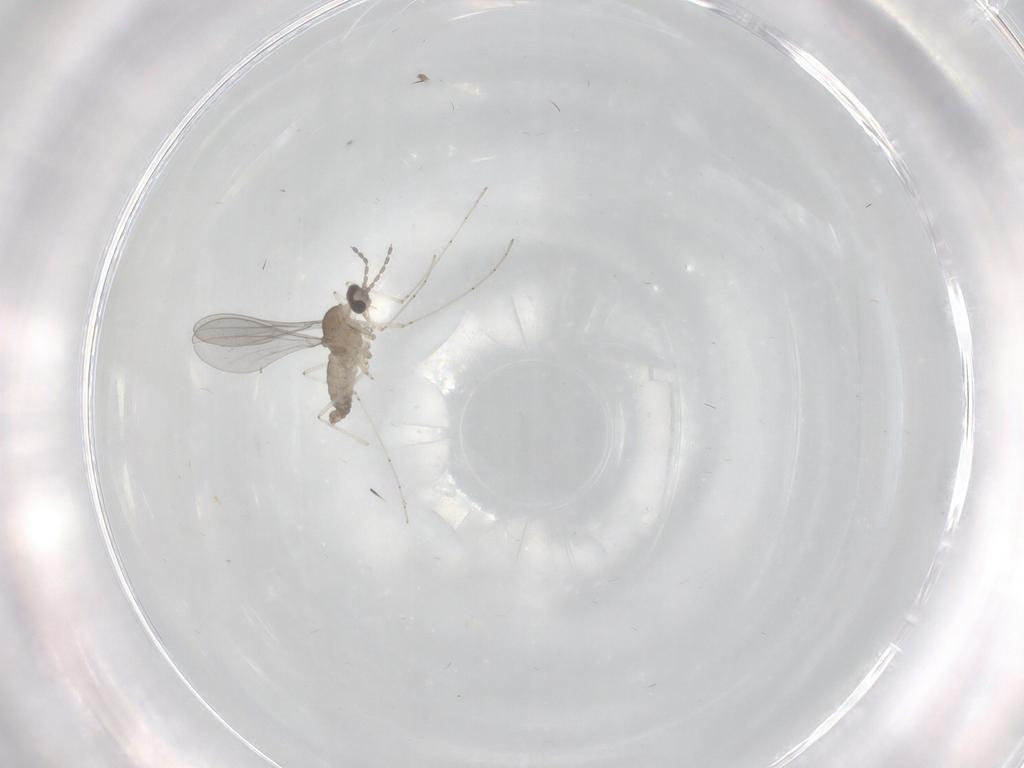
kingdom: Animalia
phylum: Arthropoda
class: Insecta
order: Diptera
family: Cecidomyiidae
